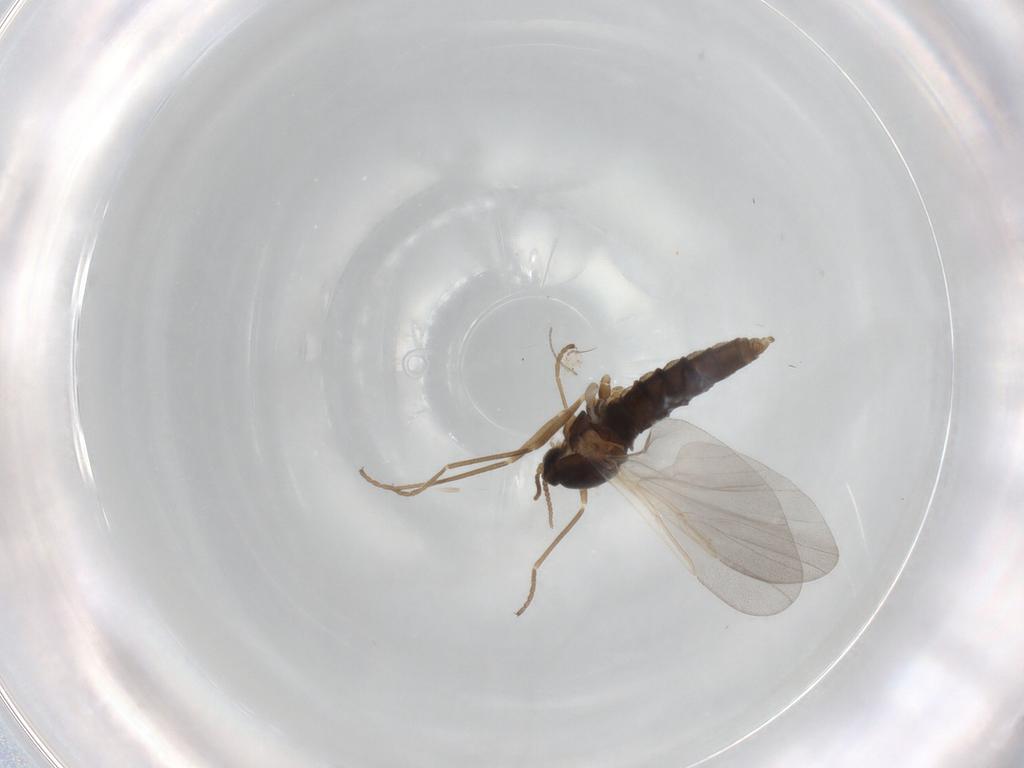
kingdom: Animalia
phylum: Arthropoda
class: Insecta
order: Diptera
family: Cecidomyiidae
